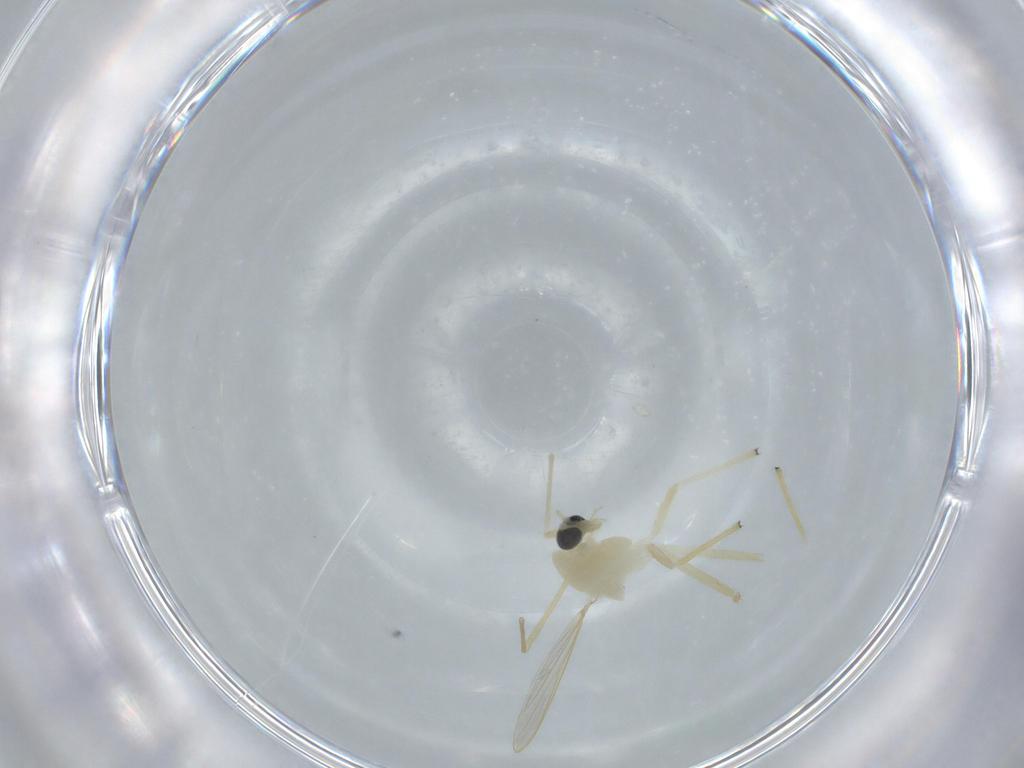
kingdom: Animalia
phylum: Arthropoda
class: Insecta
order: Diptera
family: Chironomidae
